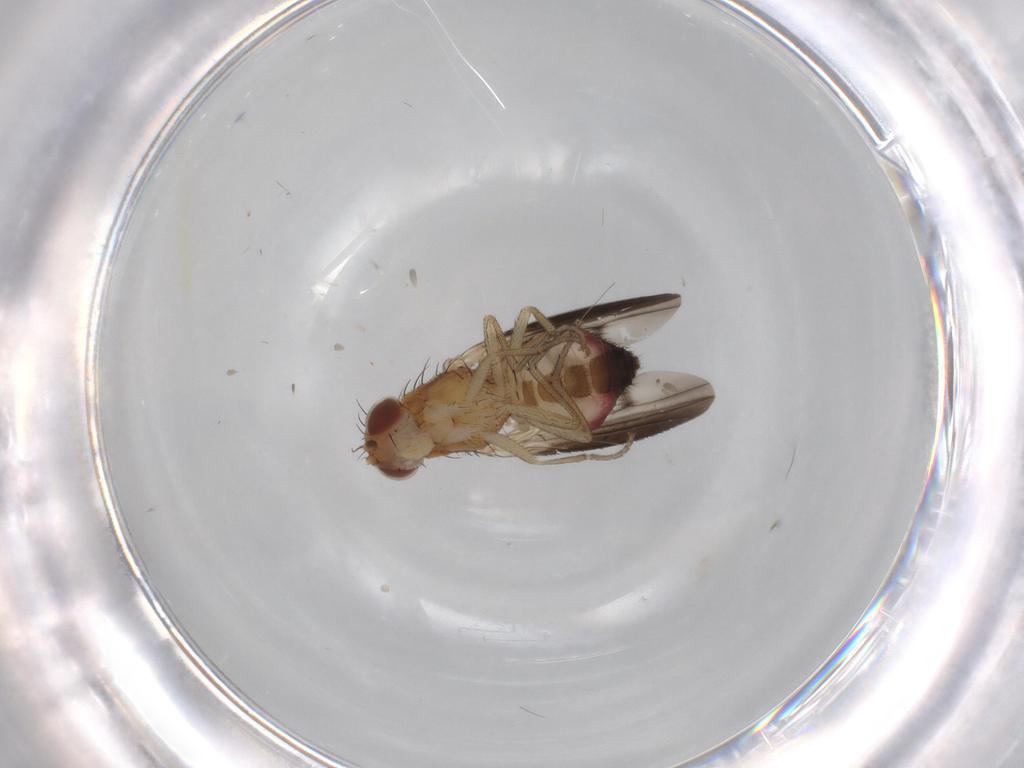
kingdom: Animalia
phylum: Arthropoda
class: Insecta
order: Diptera
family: Heleomyzidae
